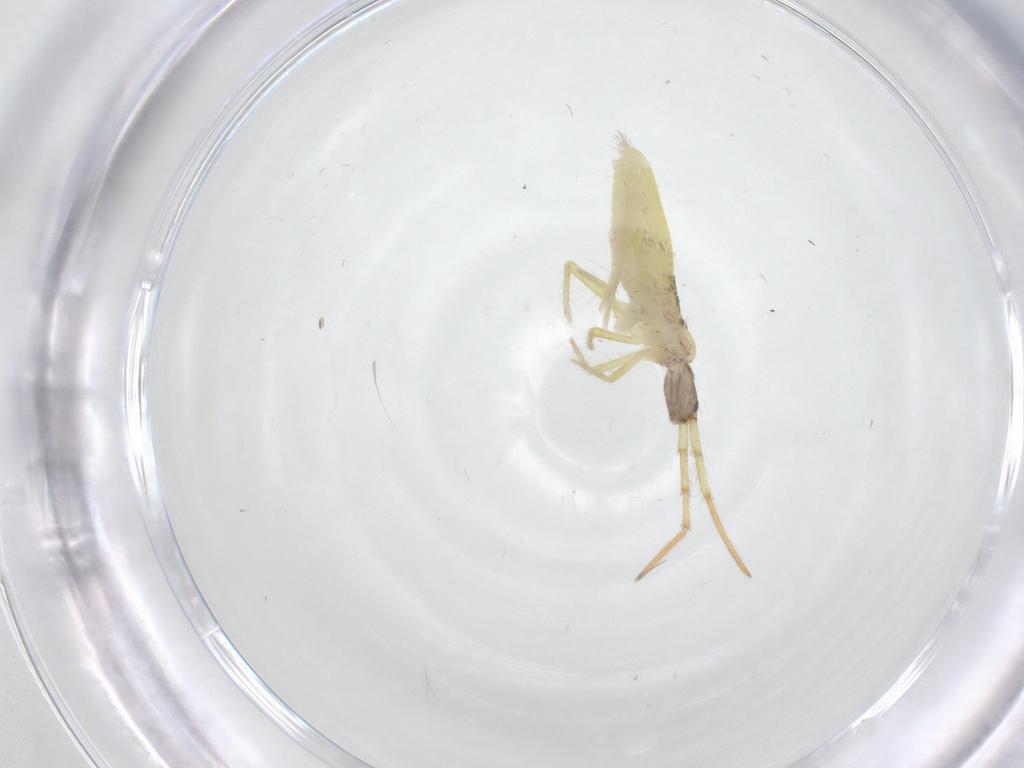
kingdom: Animalia
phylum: Arthropoda
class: Collembola
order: Entomobryomorpha
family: Entomobryidae
